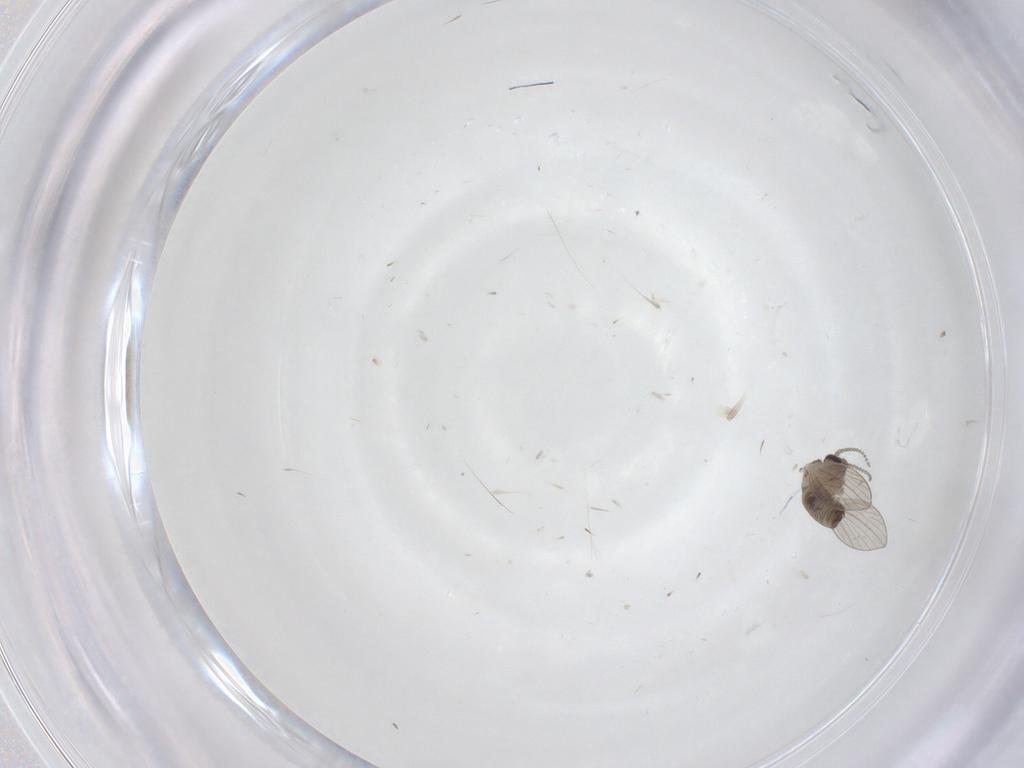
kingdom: Animalia
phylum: Arthropoda
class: Insecta
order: Diptera
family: Psychodidae
